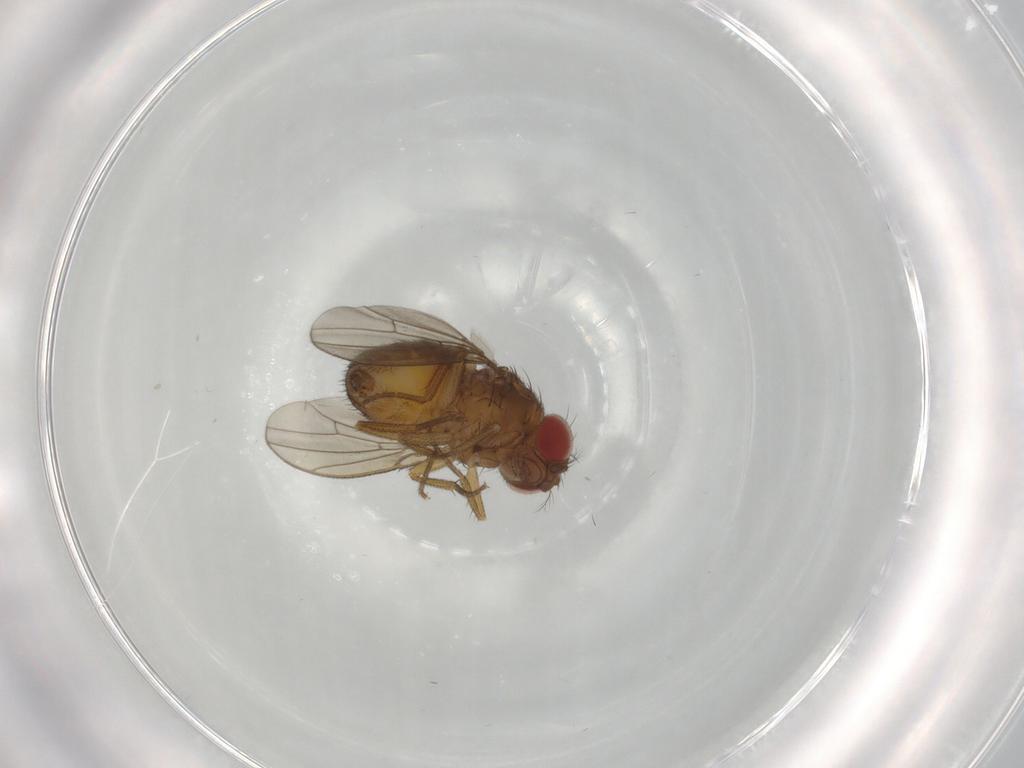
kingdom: Animalia
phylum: Arthropoda
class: Insecta
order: Diptera
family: Drosophilidae
